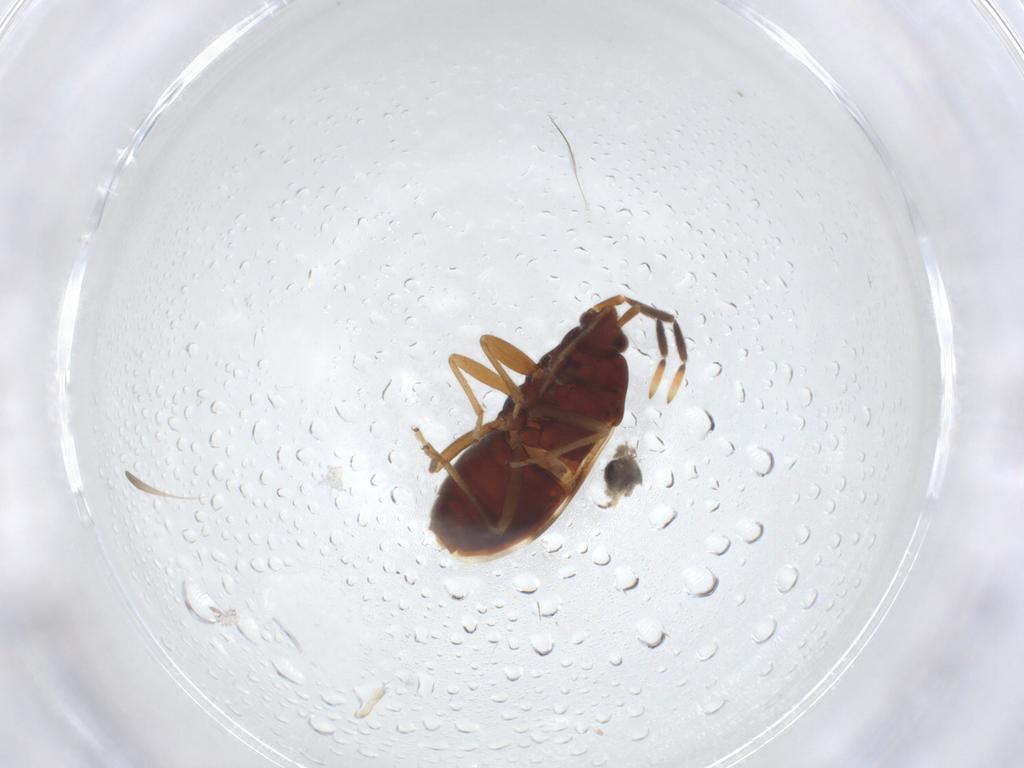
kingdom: Animalia
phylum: Arthropoda
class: Insecta
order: Hemiptera
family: Rhyparochromidae
